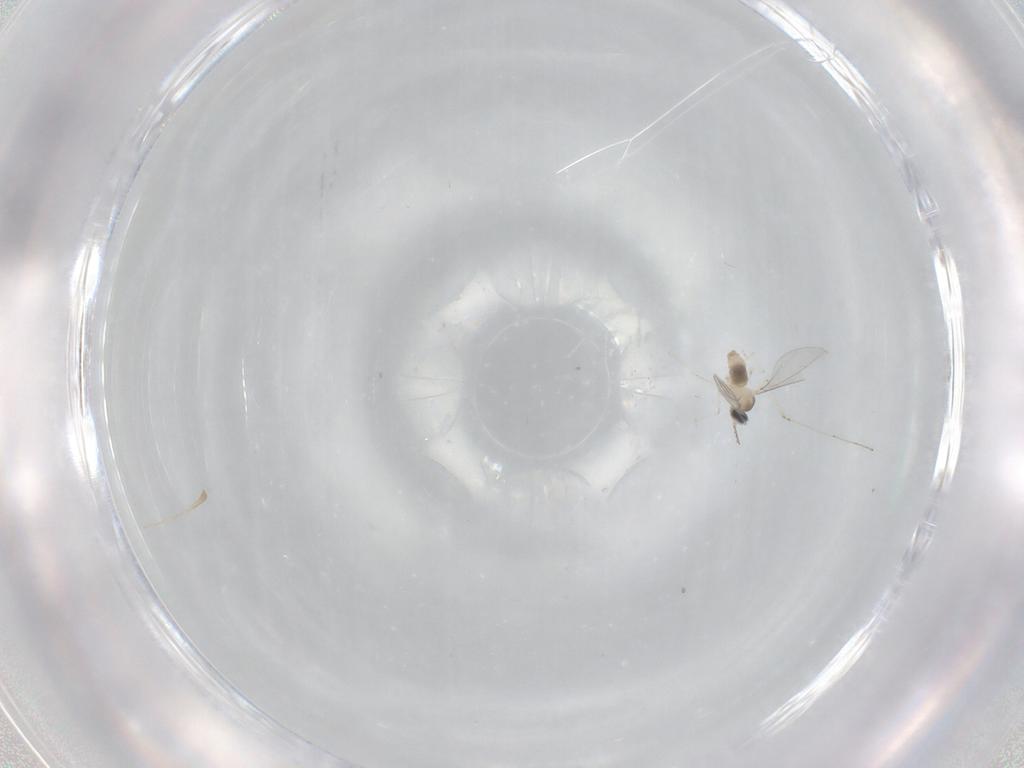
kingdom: Animalia
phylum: Arthropoda
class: Insecta
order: Diptera
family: Cecidomyiidae
